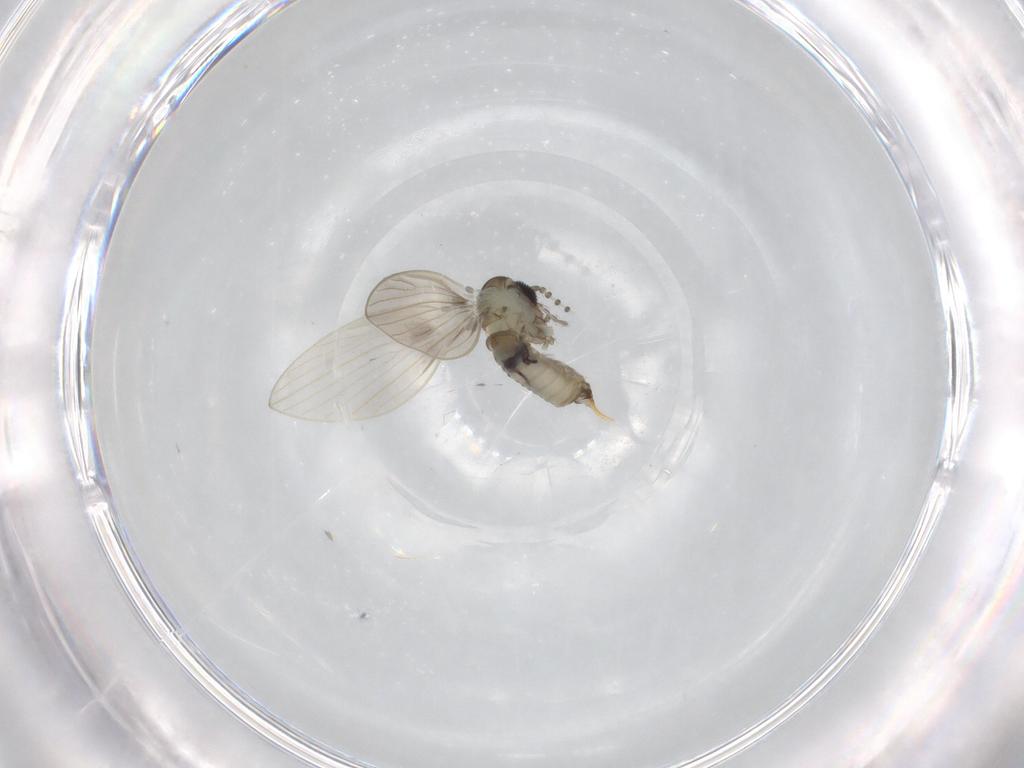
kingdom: Animalia
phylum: Arthropoda
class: Insecta
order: Diptera
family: Psychodidae
